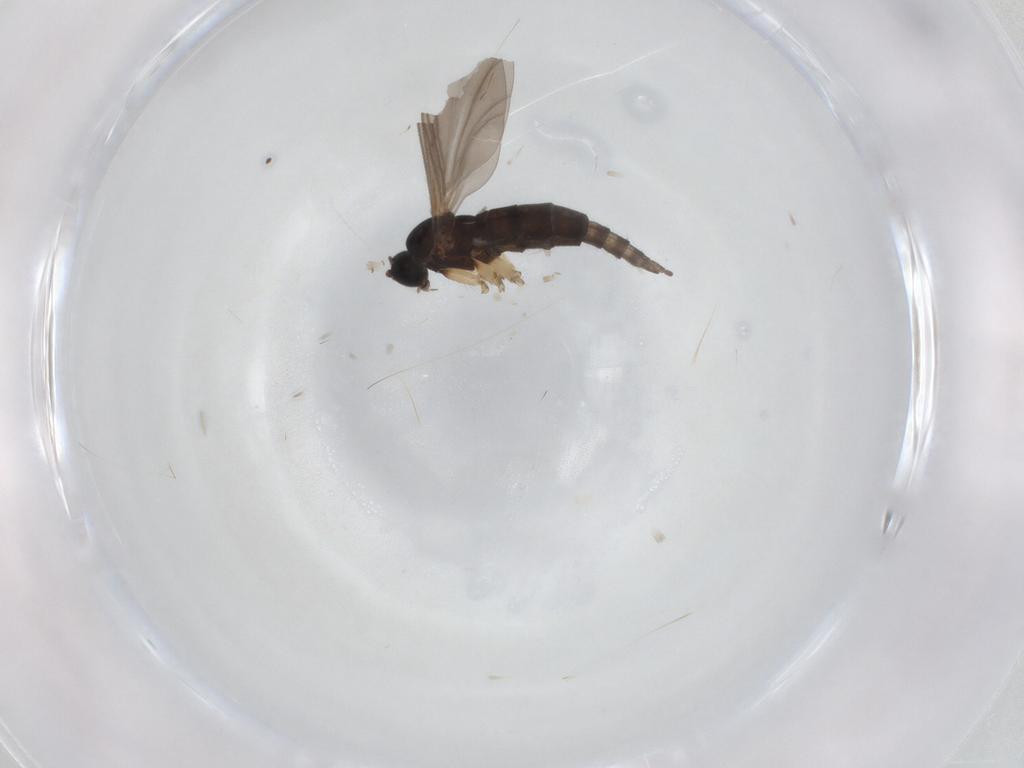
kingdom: Animalia
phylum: Arthropoda
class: Insecta
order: Diptera
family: Sciaridae
